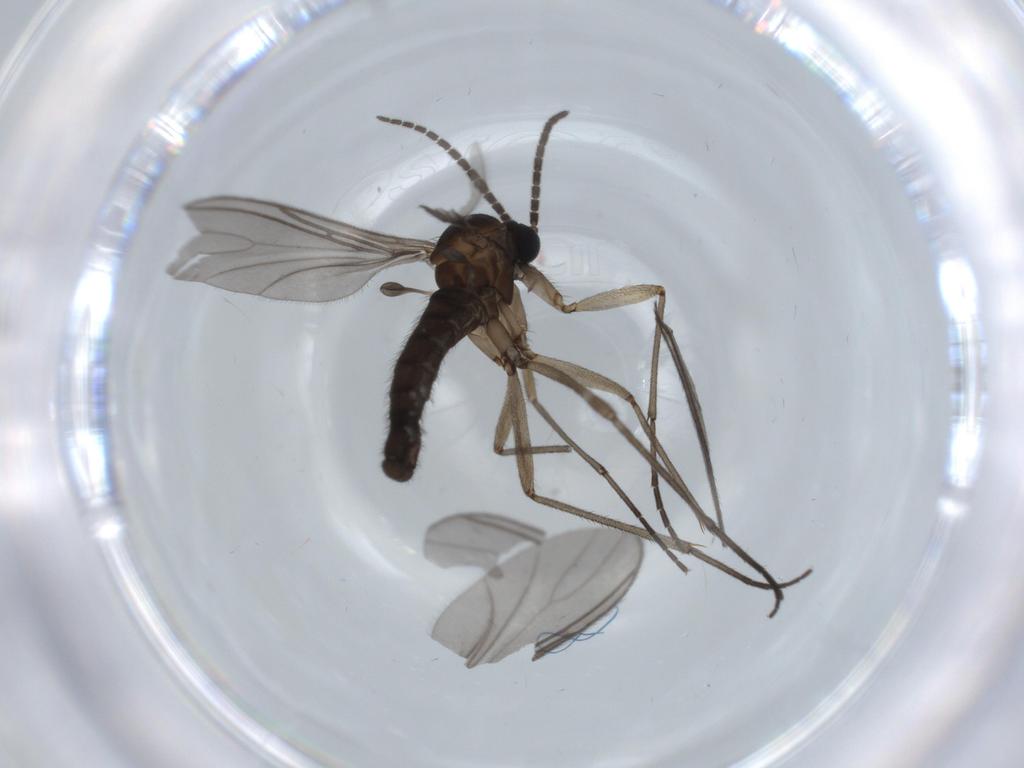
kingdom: Animalia
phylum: Arthropoda
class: Insecta
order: Diptera
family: Sciaridae
